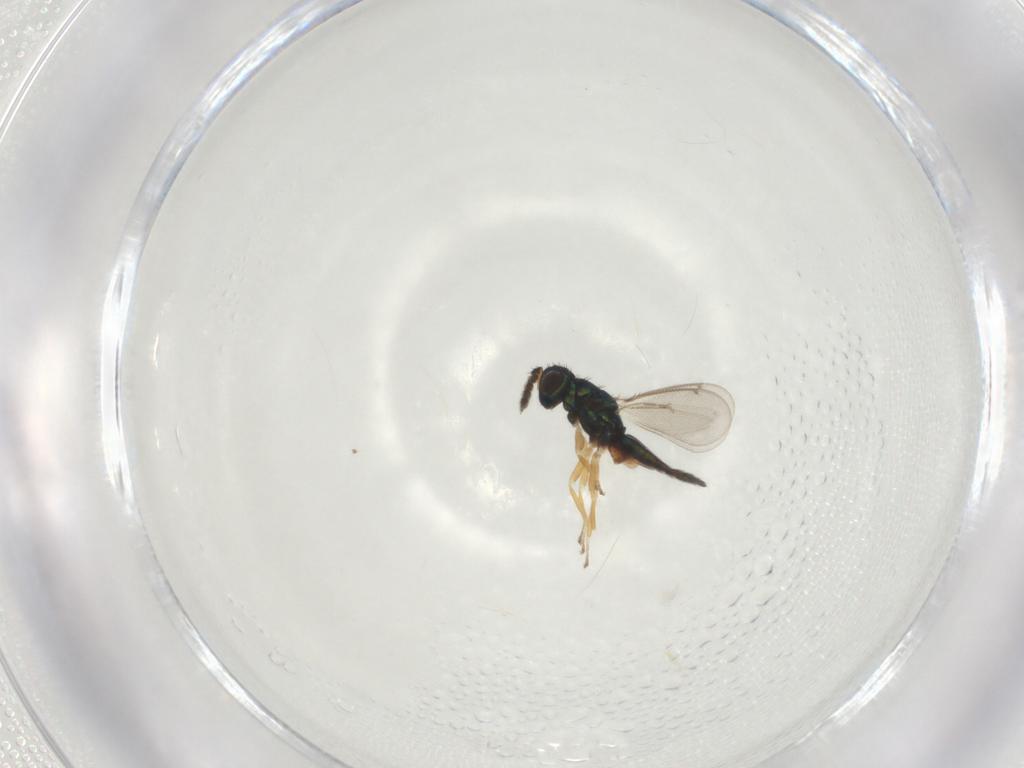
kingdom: Animalia
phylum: Arthropoda
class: Insecta
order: Hymenoptera
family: Eulophidae
